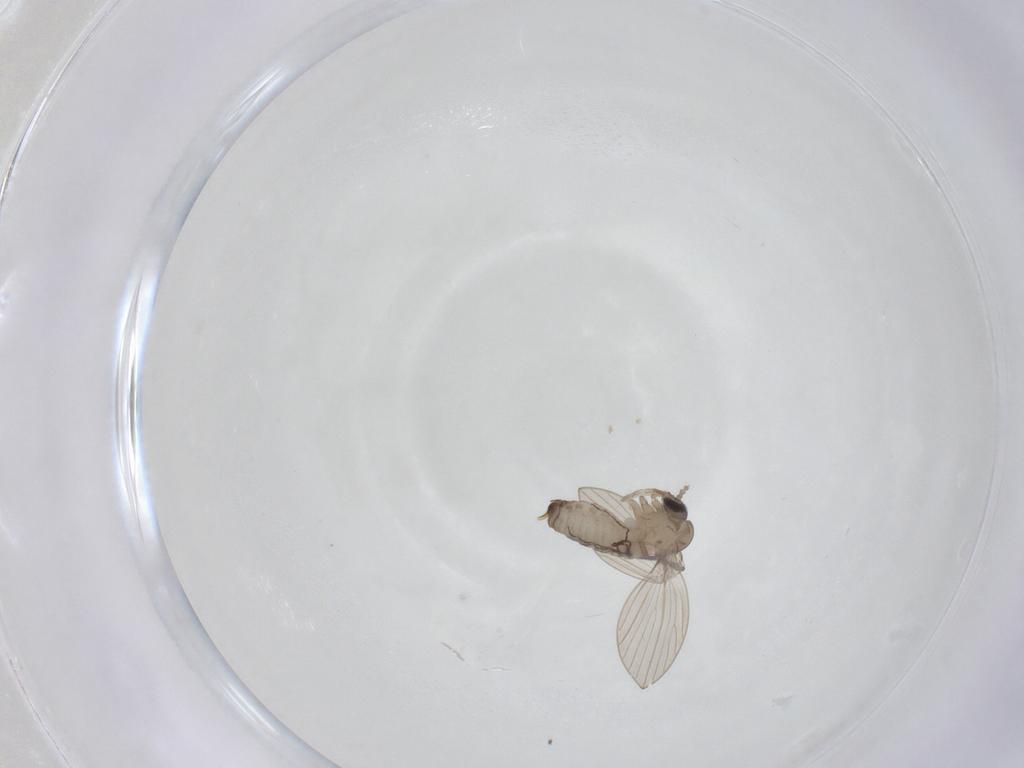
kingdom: Animalia
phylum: Arthropoda
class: Insecta
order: Diptera
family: Psychodidae
